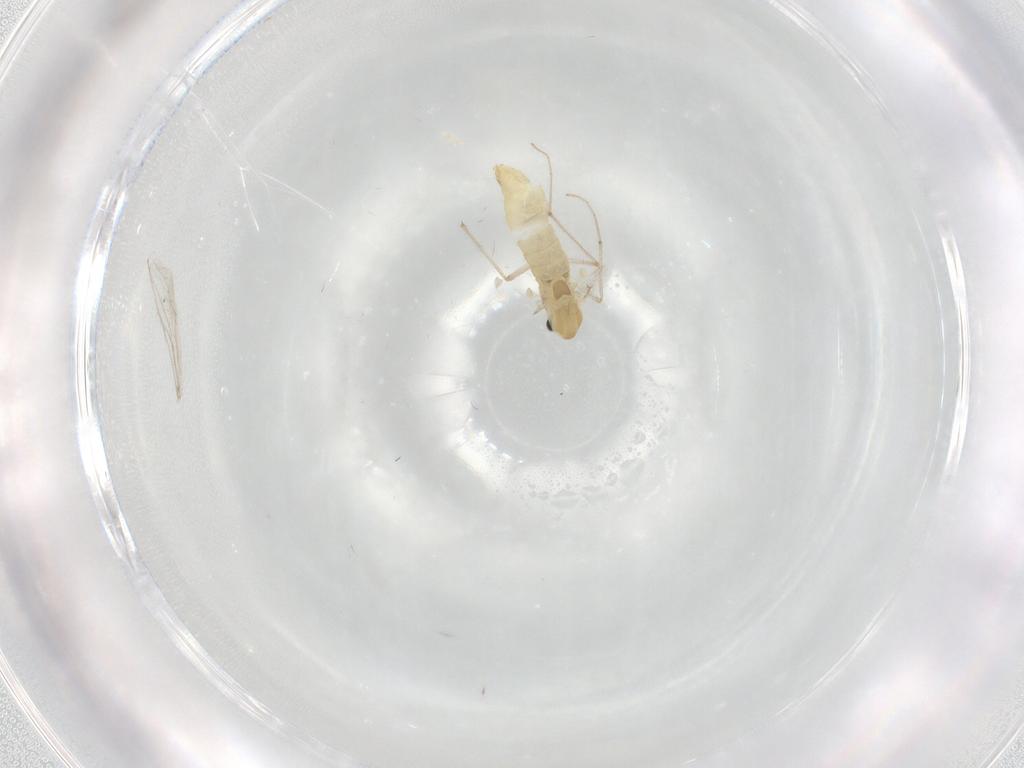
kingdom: Animalia
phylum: Arthropoda
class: Insecta
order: Diptera
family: Chironomidae
